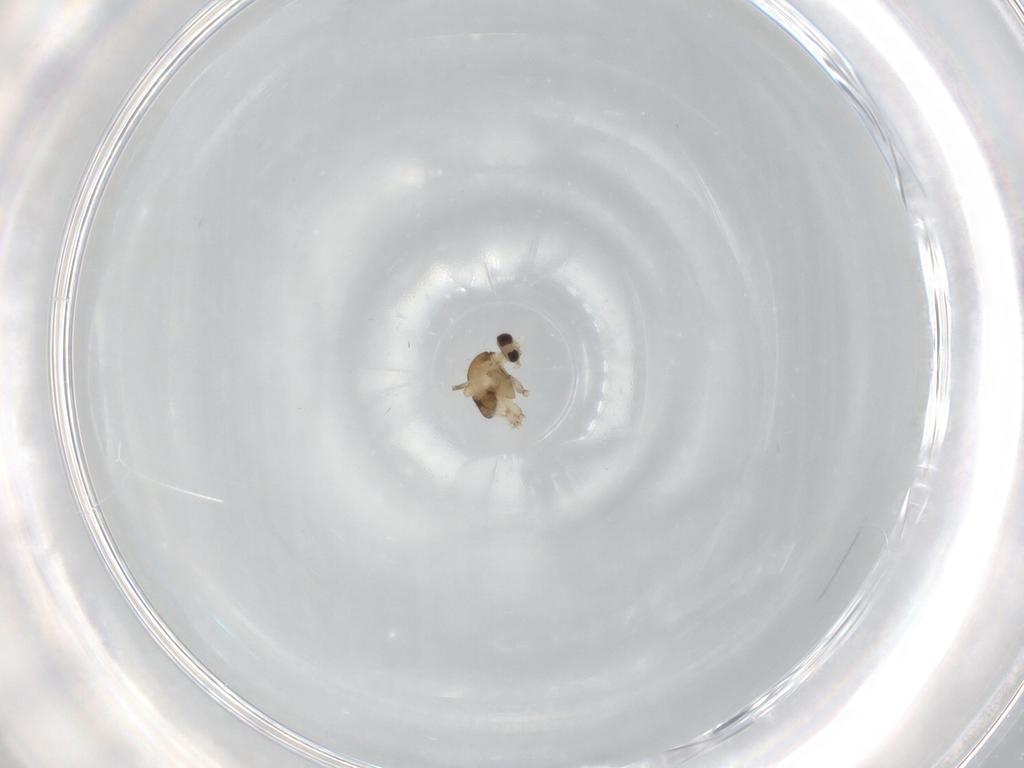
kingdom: Animalia
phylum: Arthropoda
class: Insecta
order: Diptera
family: Cecidomyiidae
